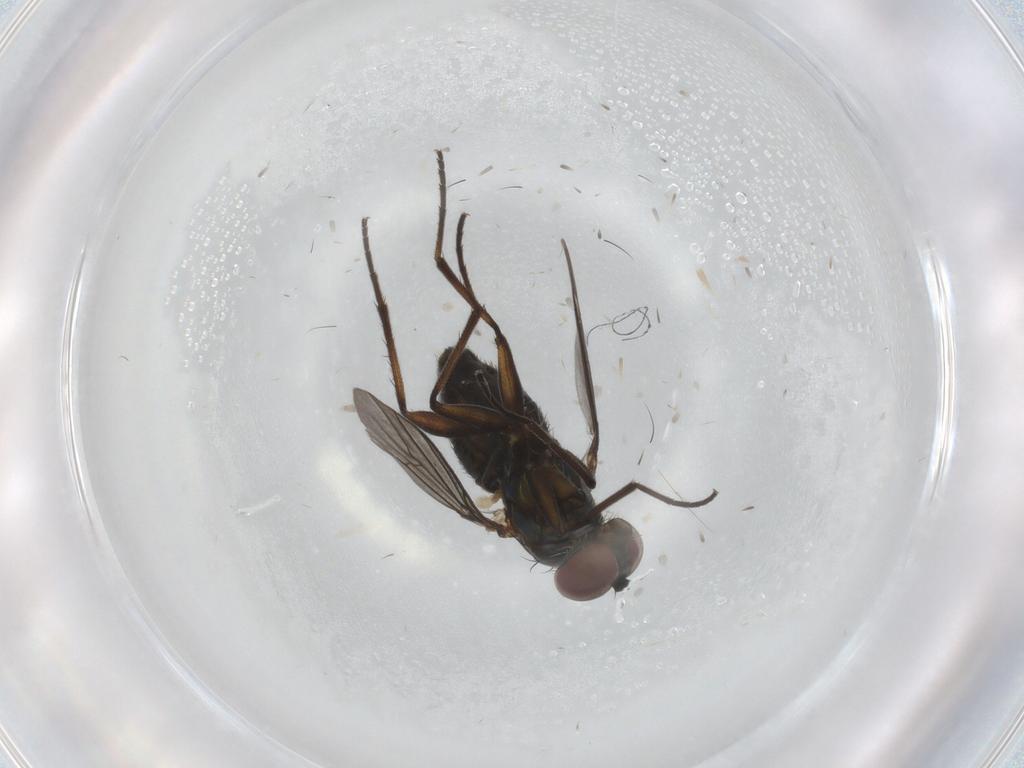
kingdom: Animalia
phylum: Arthropoda
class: Insecta
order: Diptera
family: Dolichopodidae
